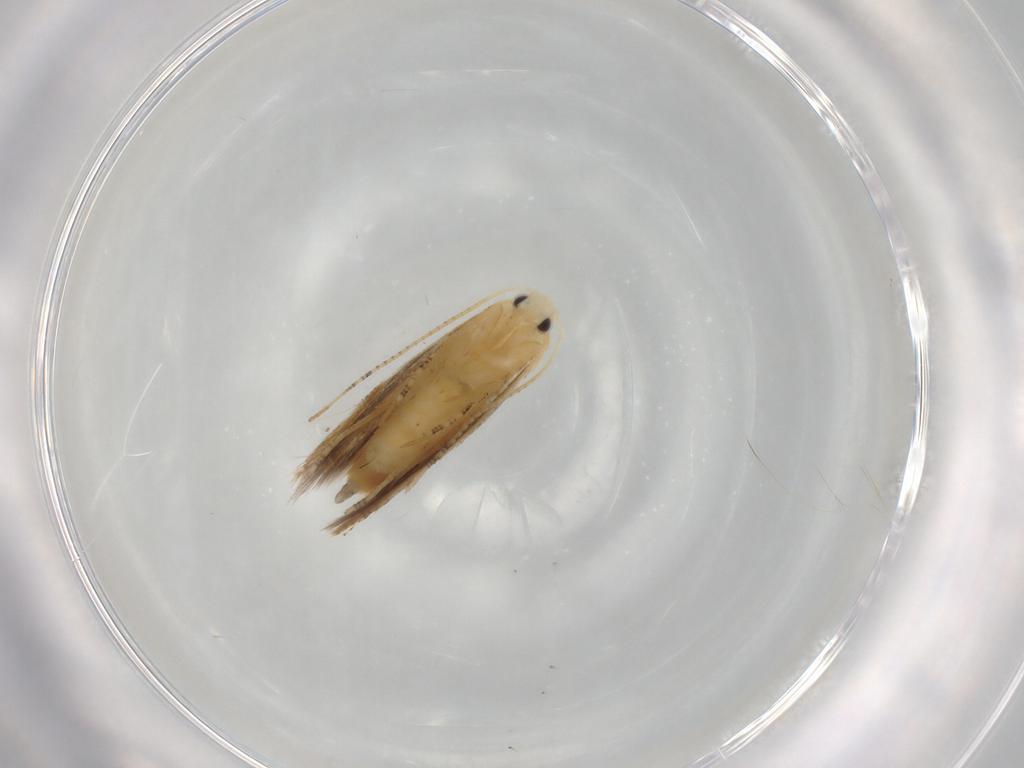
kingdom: Animalia
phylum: Arthropoda
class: Insecta
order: Lepidoptera
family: Bucculatricidae
